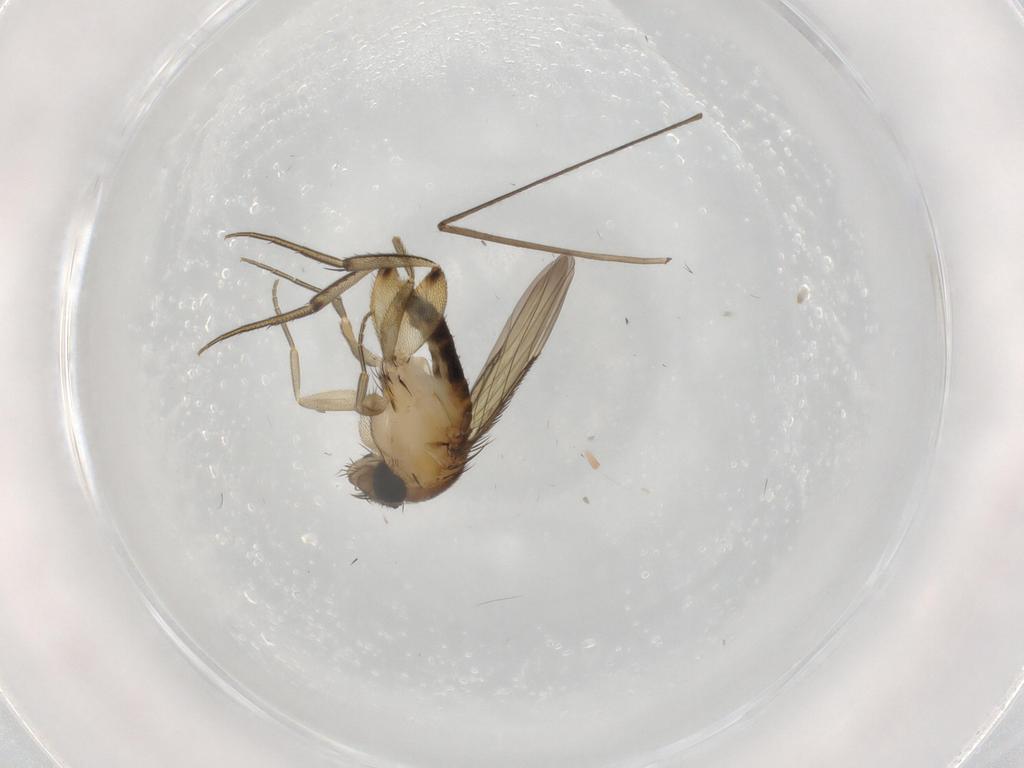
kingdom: Animalia
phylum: Arthropoda
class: Insecta
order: Diptera
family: Phoridae
